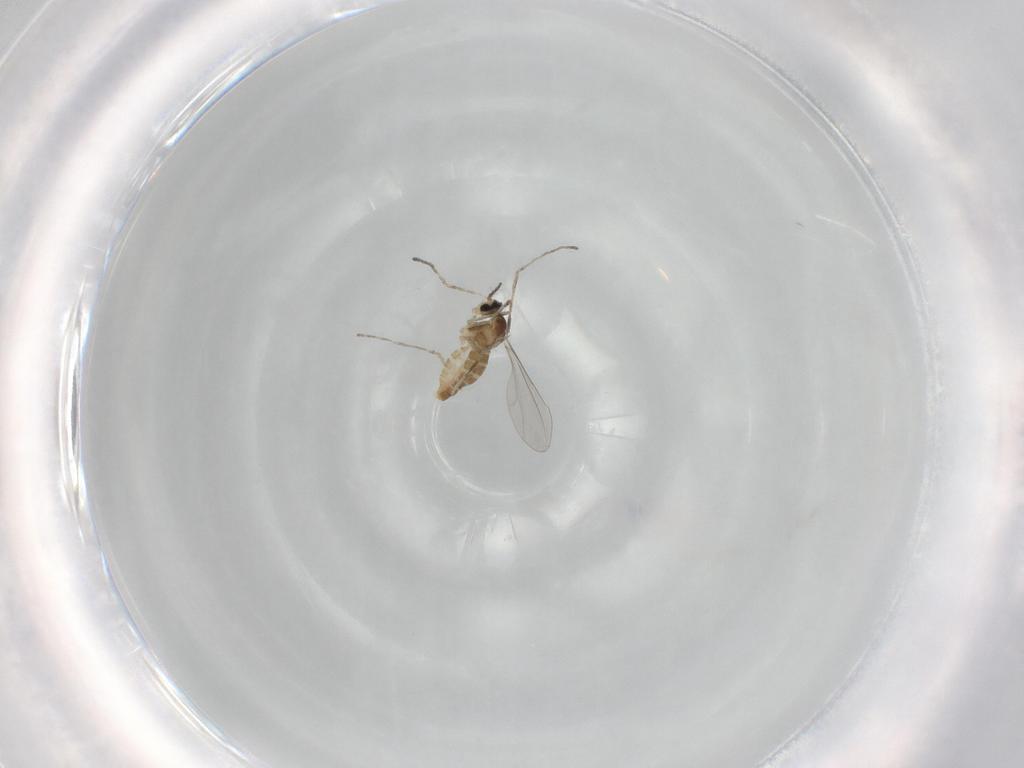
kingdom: Animalia
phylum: Arthropoda
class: Insecta
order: Diptera
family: Cecidomyiidae
